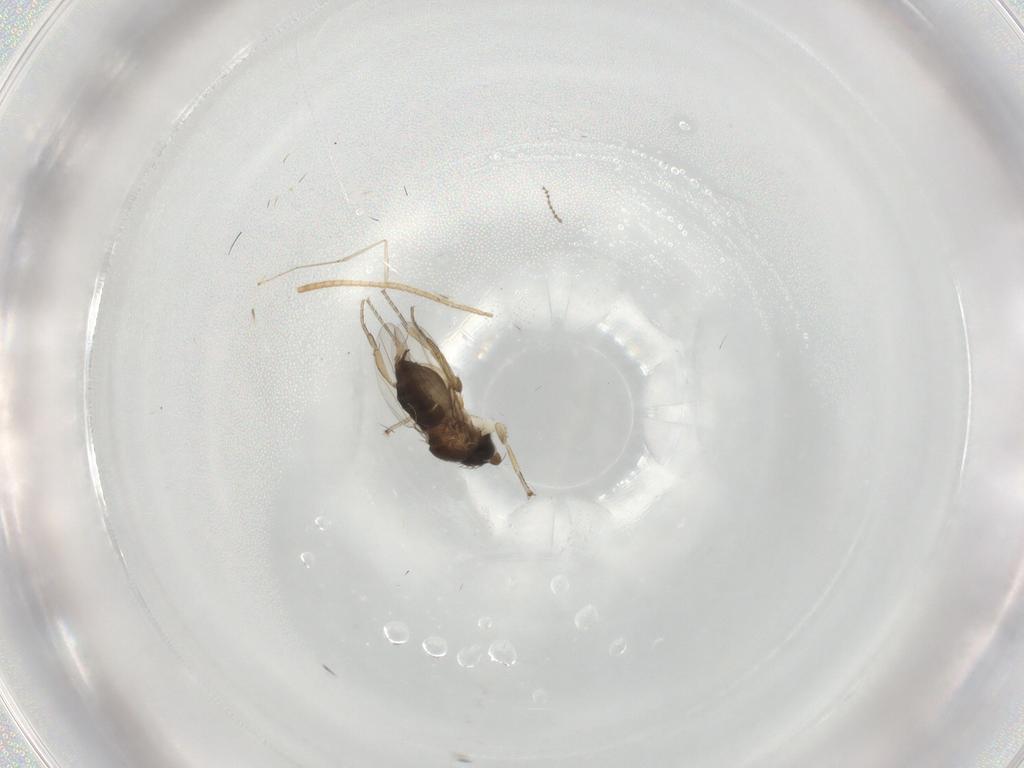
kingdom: Animalia
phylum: Arthropoda
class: Insecta
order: Diptera
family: Phoridae
